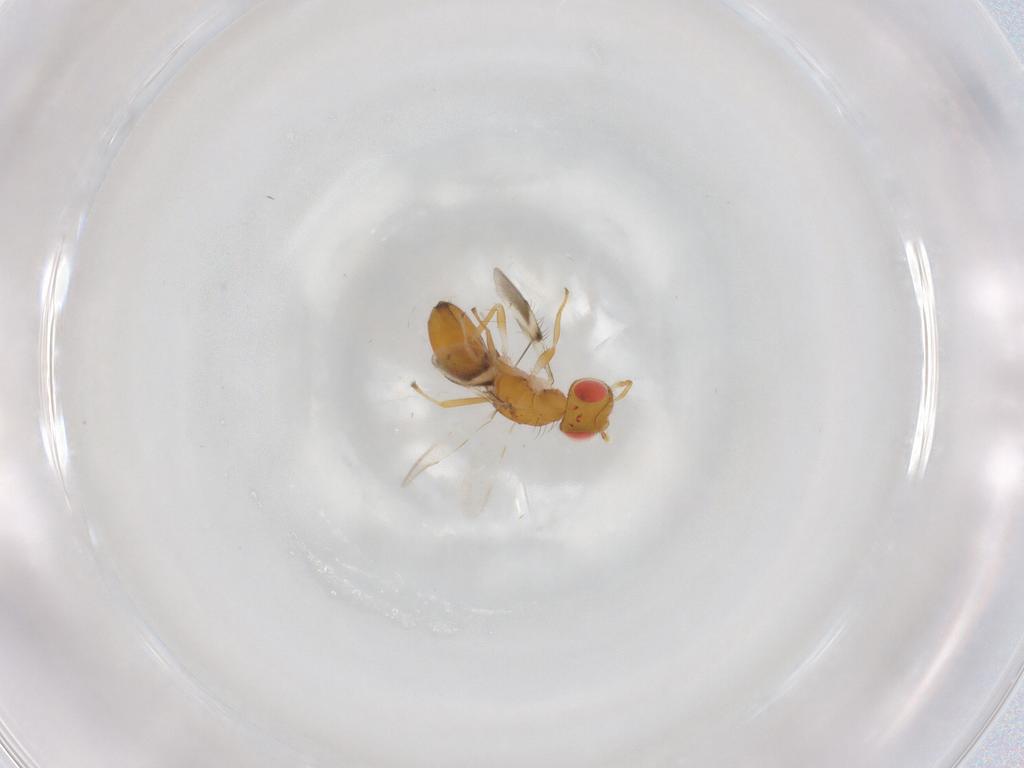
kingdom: Animalia
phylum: Arthropoda
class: Insecta
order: Hymenoptera
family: Eulophidae
